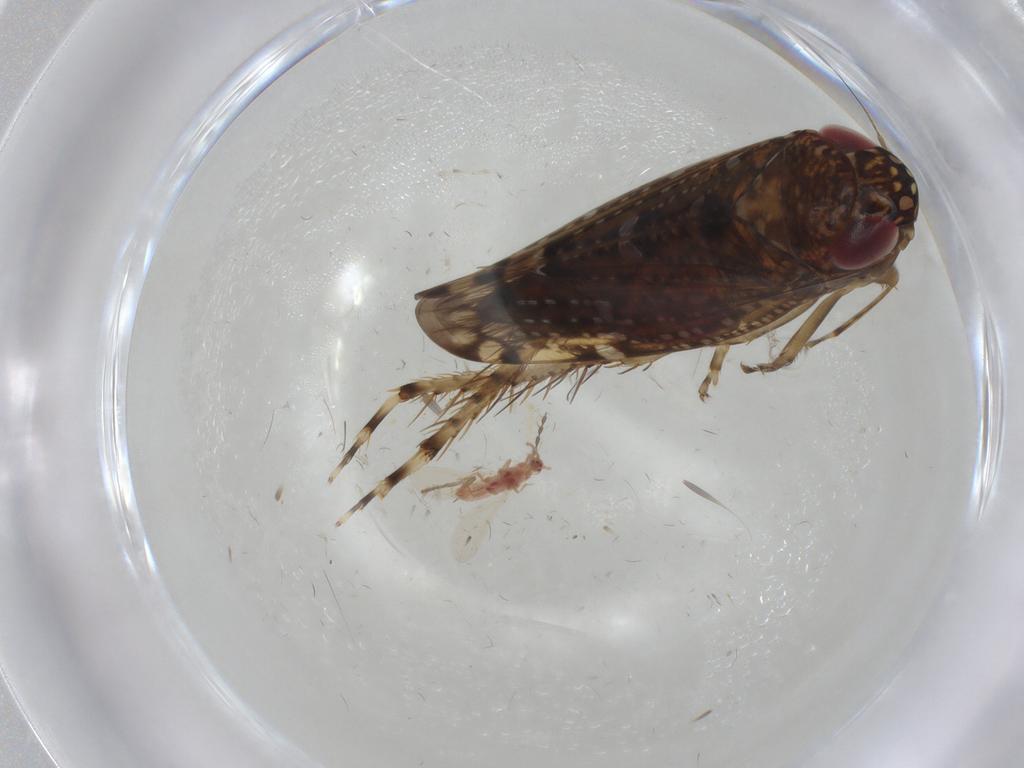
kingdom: Animalia
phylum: Arthropoda
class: Insecta
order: Hemiptera
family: Cicadellidae
